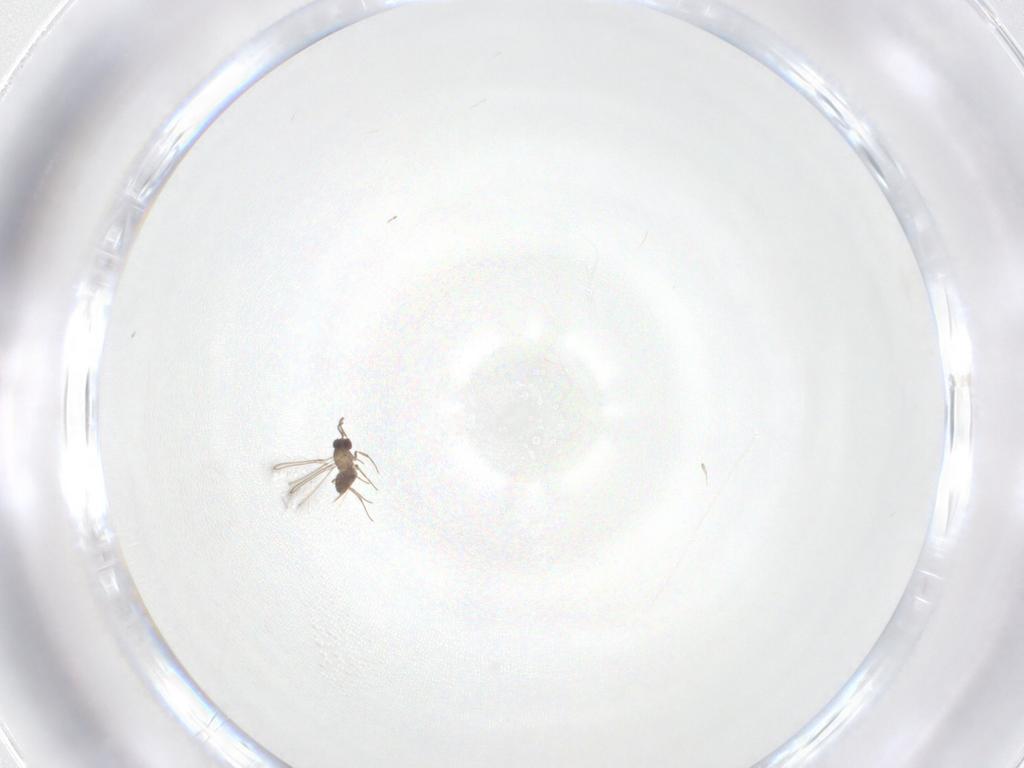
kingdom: Animalia
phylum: Arthropoda
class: Insecta
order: Hymenoptera
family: Mymaridae
